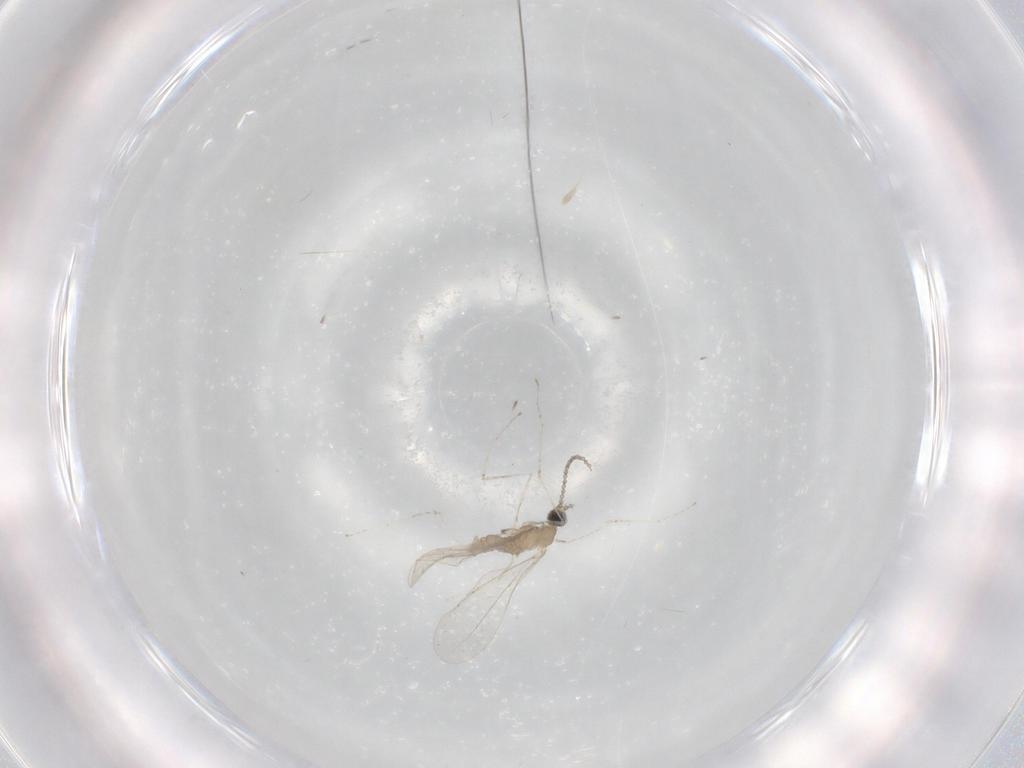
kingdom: Animalia
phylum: Arthropoda
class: Insecta
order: Diptera
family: Cecidomyiidae
